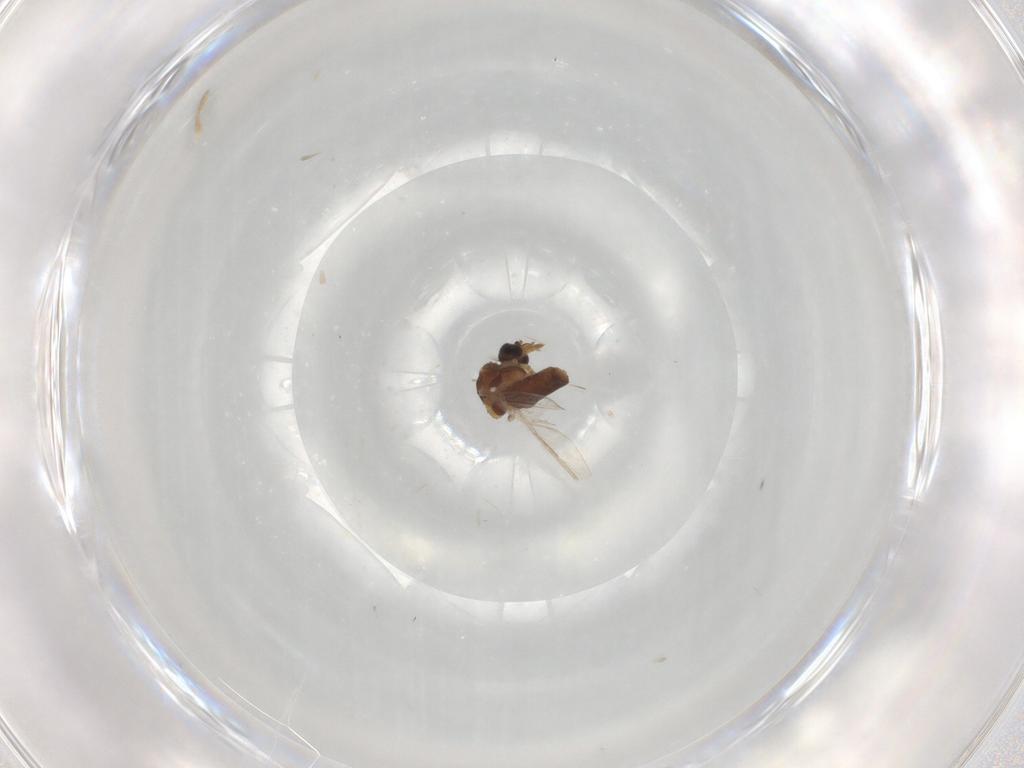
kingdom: Animalia
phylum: Arthropoda
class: Insecta
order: Diptera
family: Ceratopogonidae
